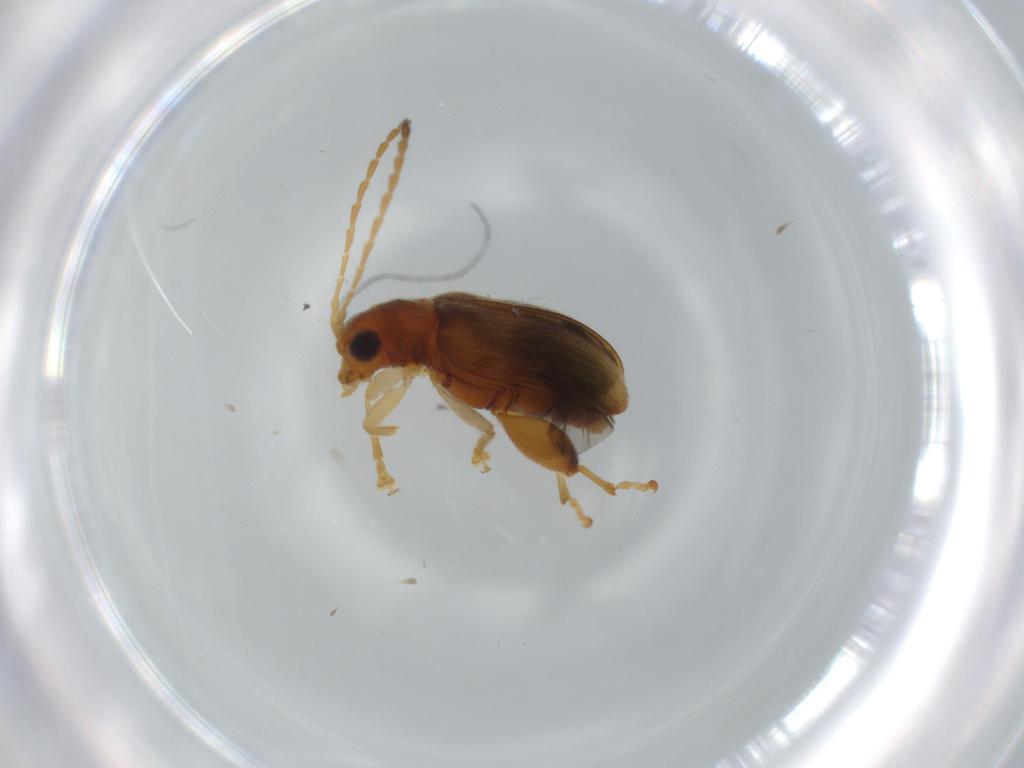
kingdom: Animalia
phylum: Arthropoda
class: Insecta
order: Coleoptera
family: Chrysomelidae
